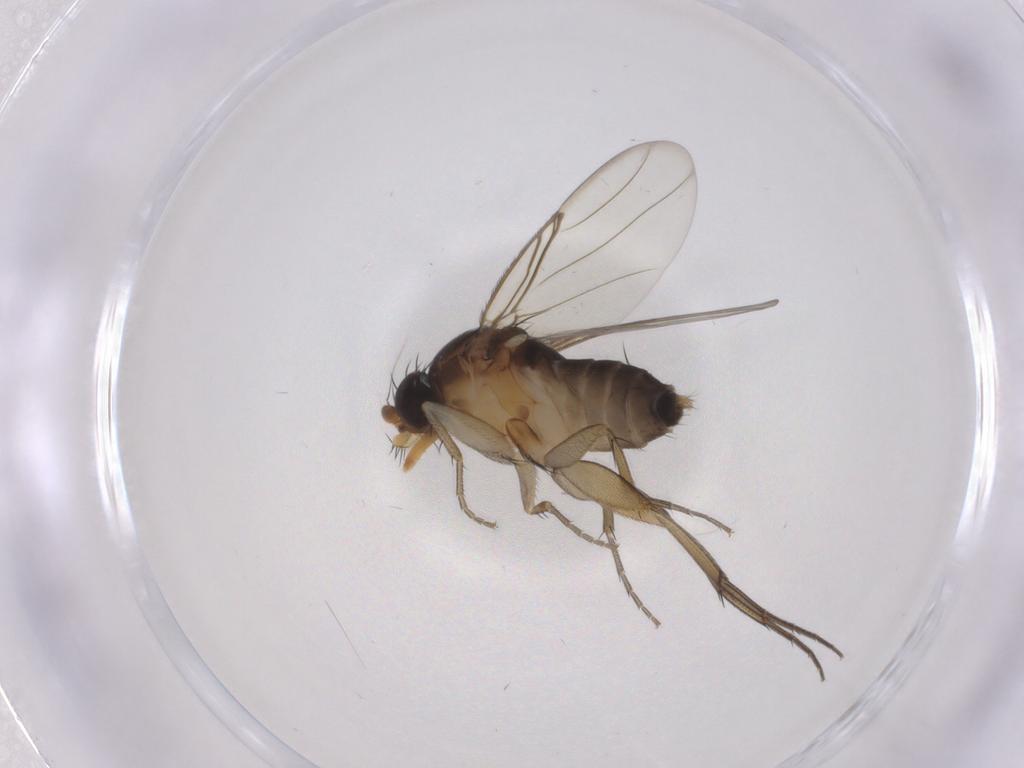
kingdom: Animalia
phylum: Arthropoda
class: Insecta
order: Diptera
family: Phoridae
